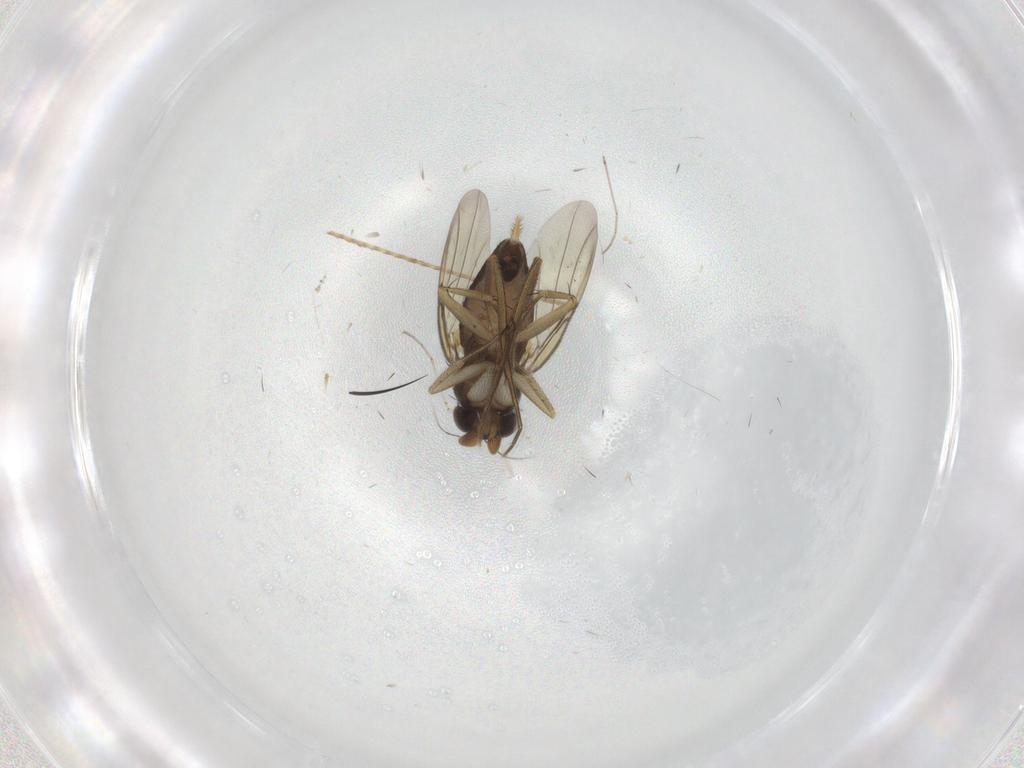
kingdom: Animalia
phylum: Arthropoda
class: Insecta
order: Diptera
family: Phoridae
